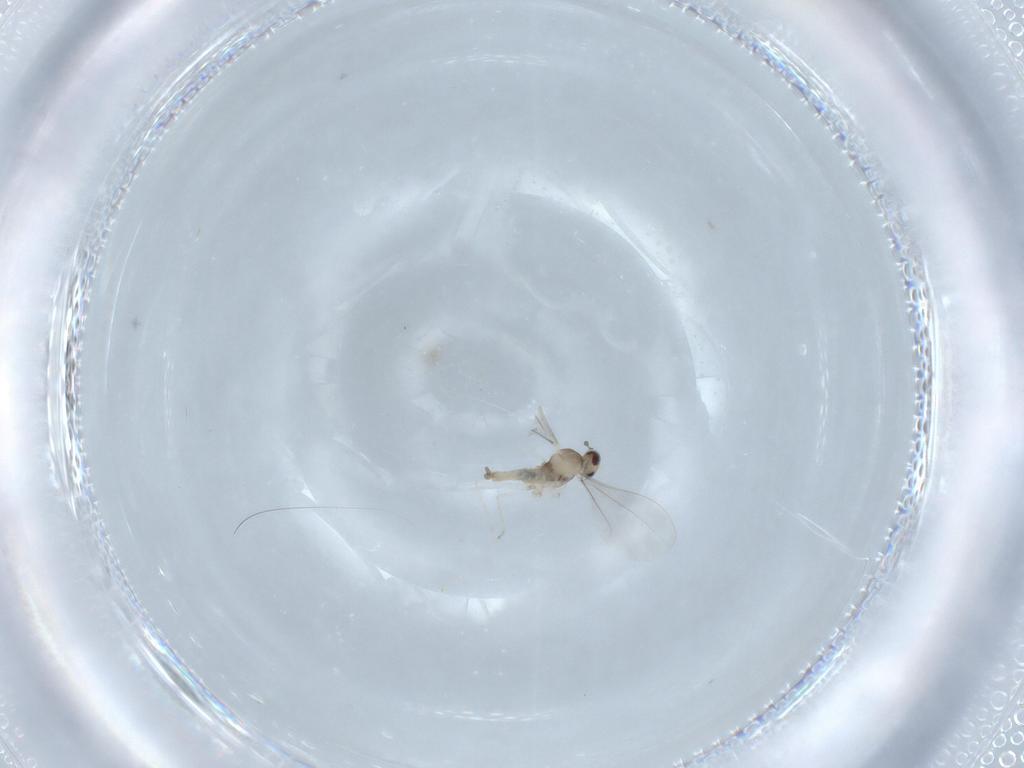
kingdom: Animalia
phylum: Arthropoda
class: Insecta
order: Diptera
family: Cecidomyiidae
